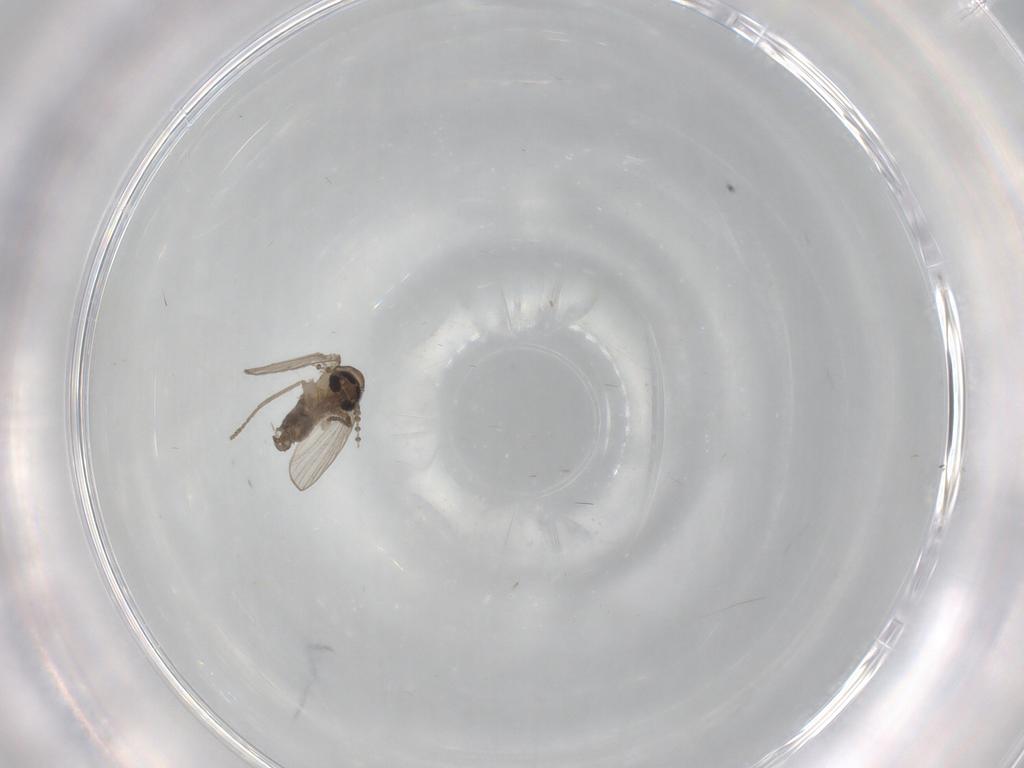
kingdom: Animalia
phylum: Arthropoda
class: Insecta
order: Diptera
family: Psychodidae
